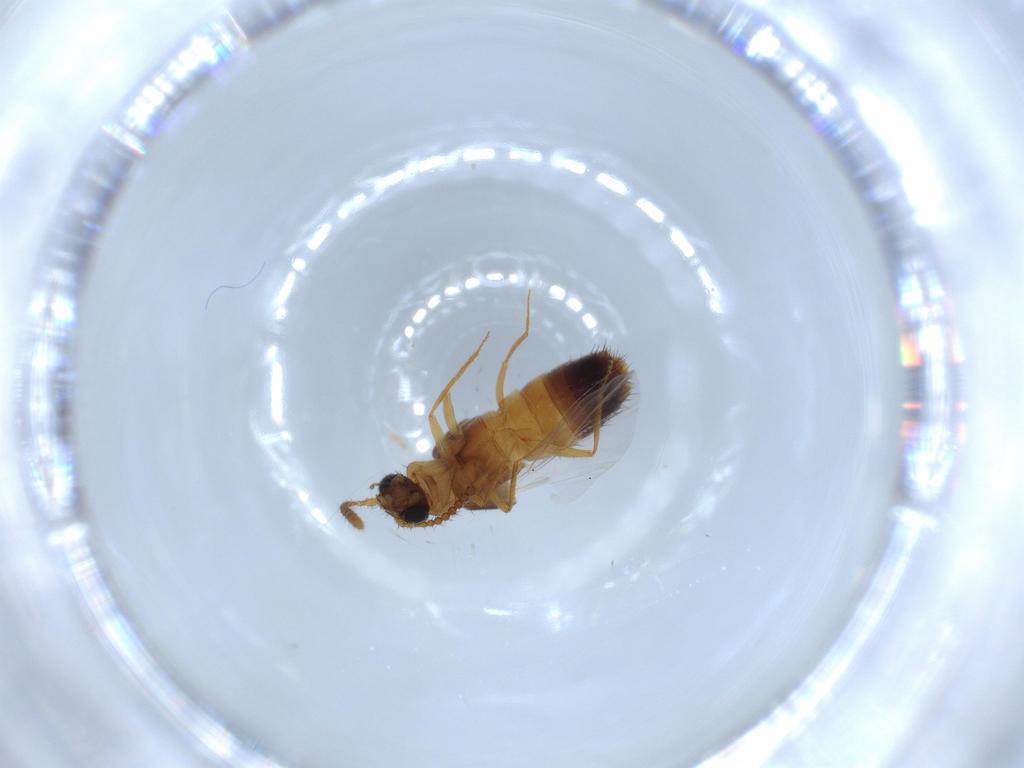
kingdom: Animalia
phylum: Arthropoda
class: Insecta
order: Coleoptera
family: Staphylinidae
